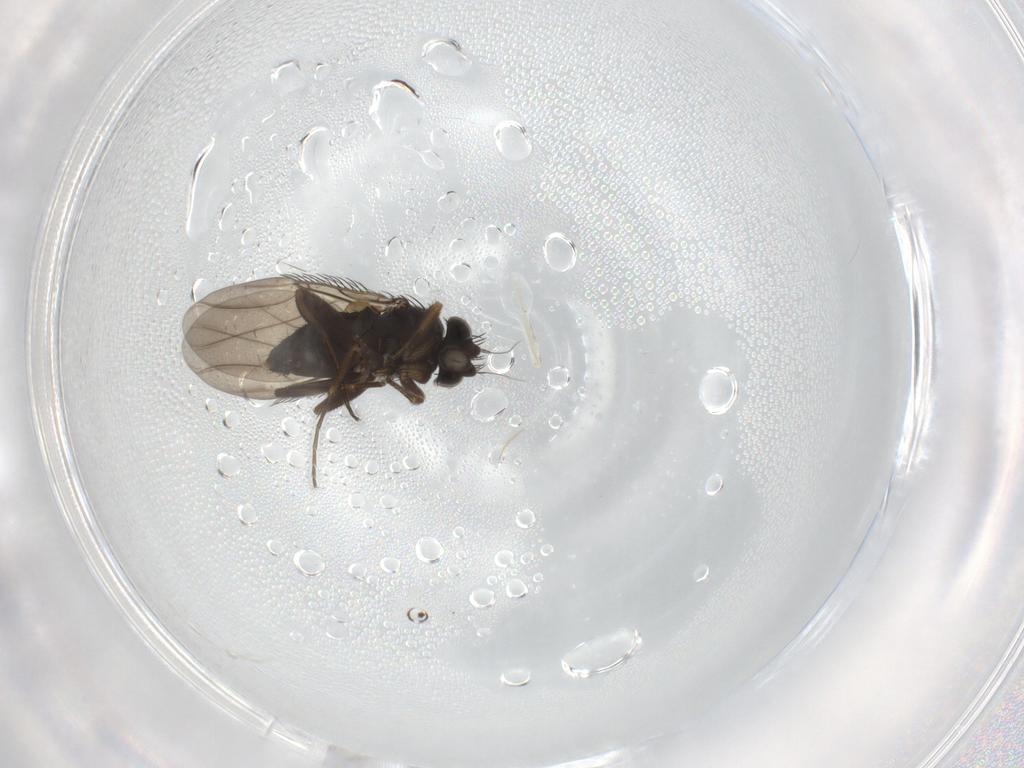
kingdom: Animalia
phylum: Arthropoda
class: Insecta
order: Diptera
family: Phoridae
